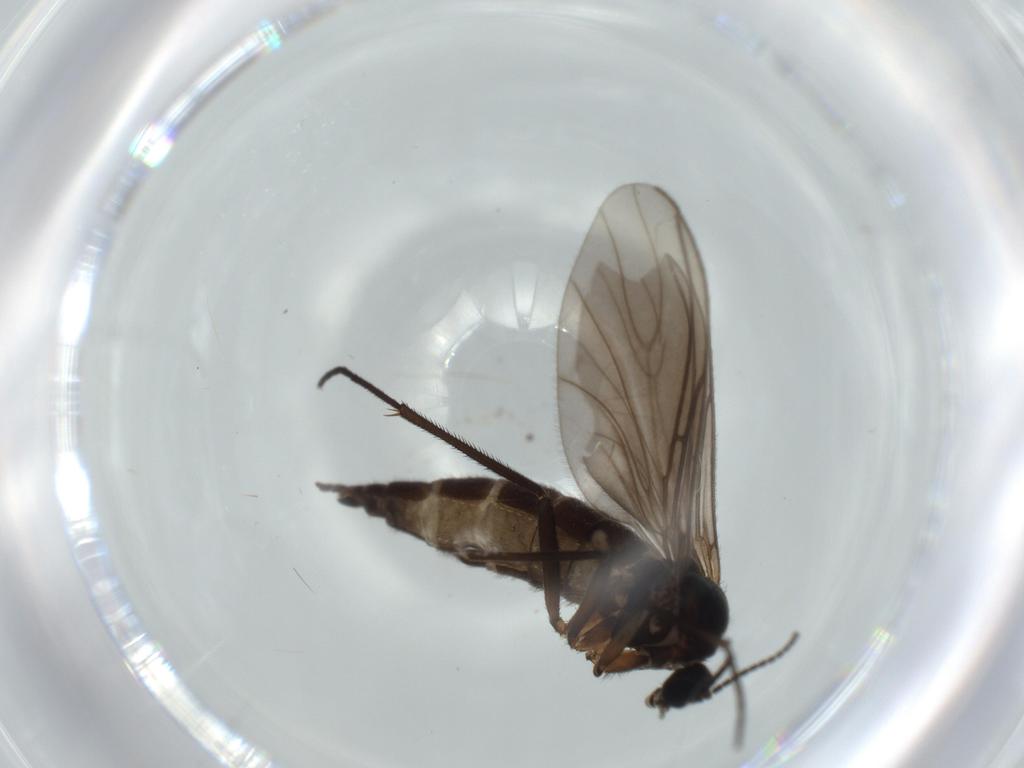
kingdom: Animalia
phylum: Arthropoda
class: Insecta
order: Diptera
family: Sciaridae
